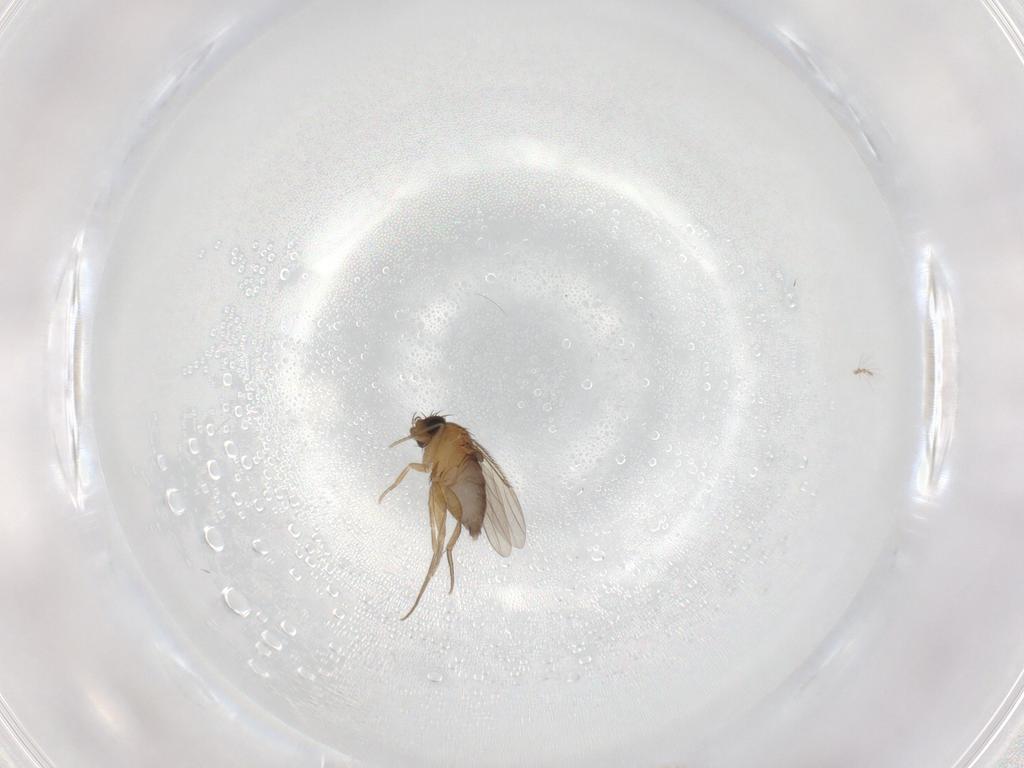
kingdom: Animalia
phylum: Arthropoda
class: Insecta
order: Diptera
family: Phoridae
